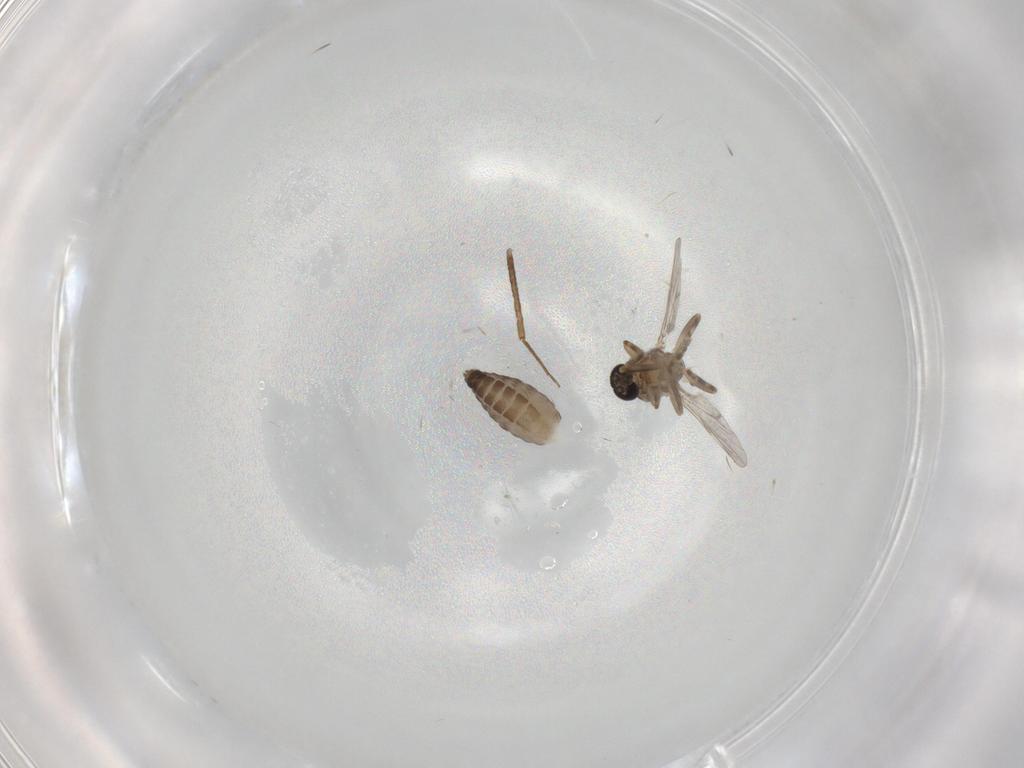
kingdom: Animalia
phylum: Arthropoda
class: Insecta
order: Diptera
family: Ceratopogonidae
